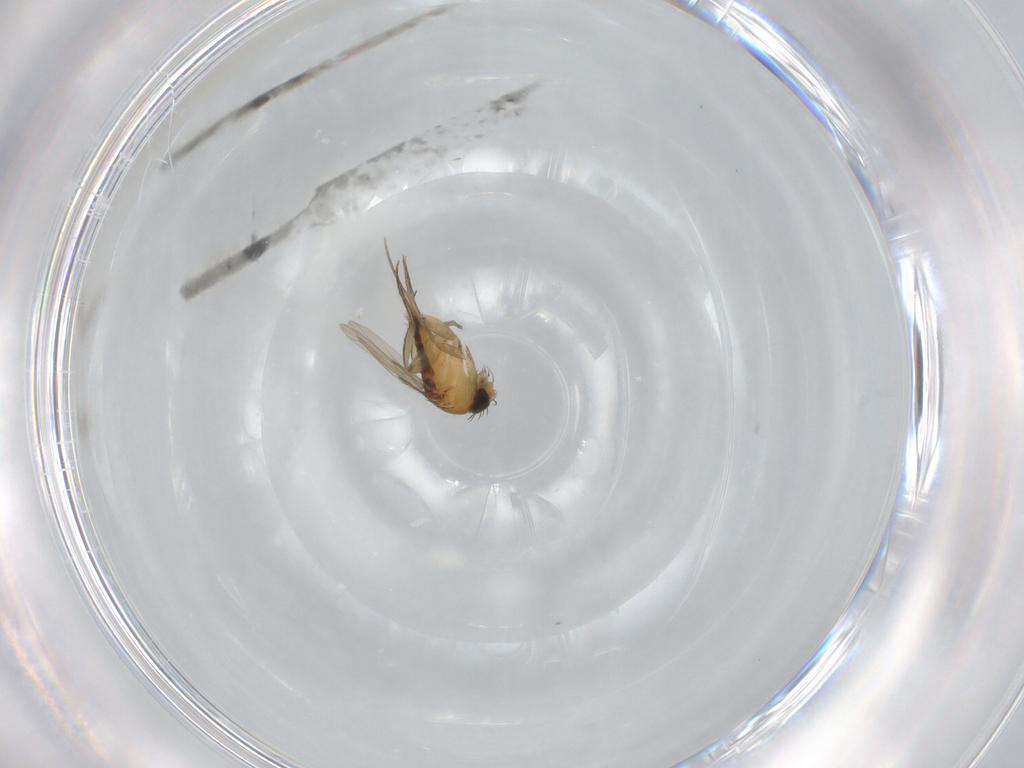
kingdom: Animalia
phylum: Arthropoda
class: Insecta
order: Diptera
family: Phoridae
